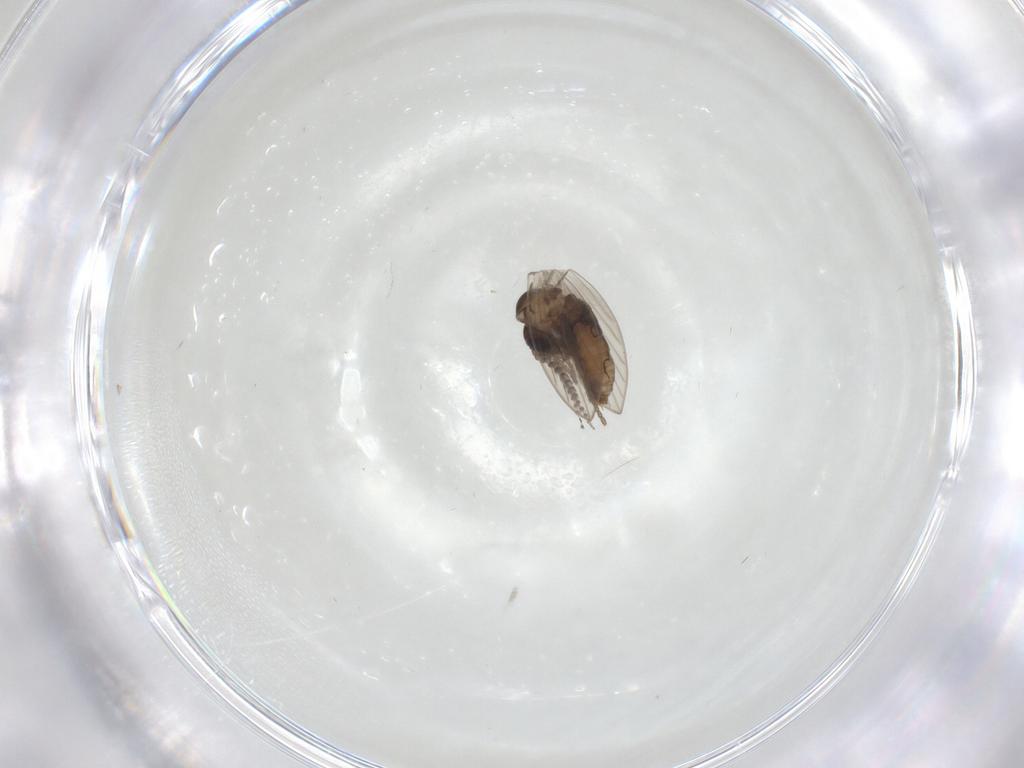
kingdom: Animalia
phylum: Arthropoda
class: Insecta
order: Diptera
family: Psychodidae
